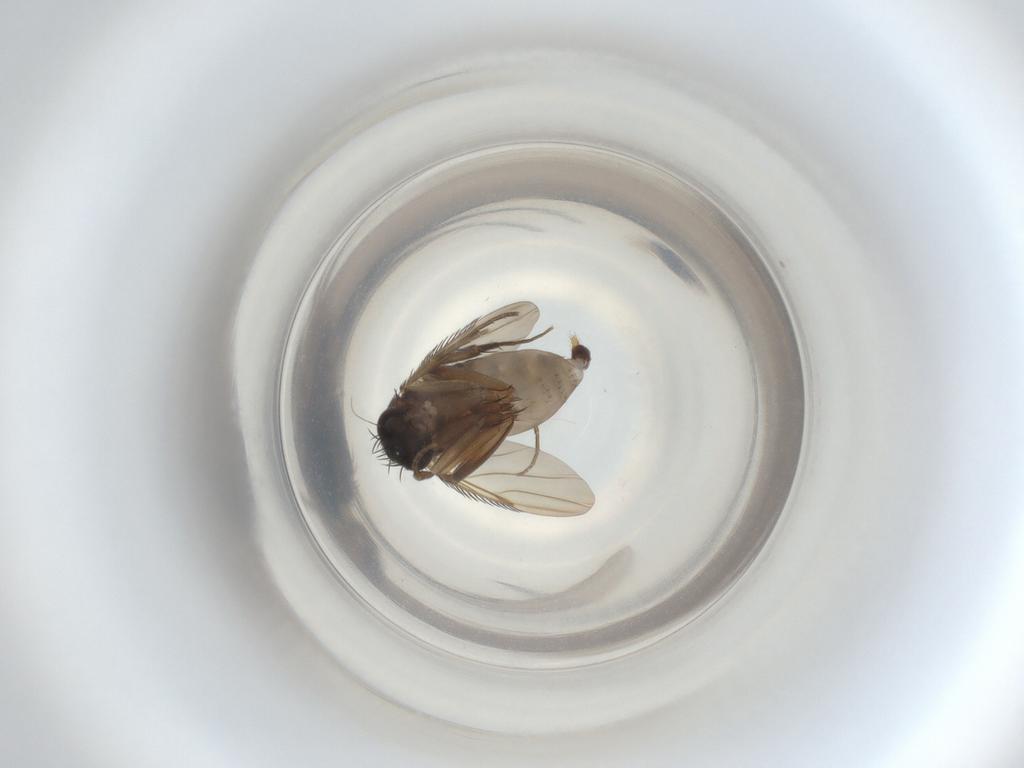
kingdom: Animalia
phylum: Arthropoda
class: Insecta
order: Diptera
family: Phoridae
